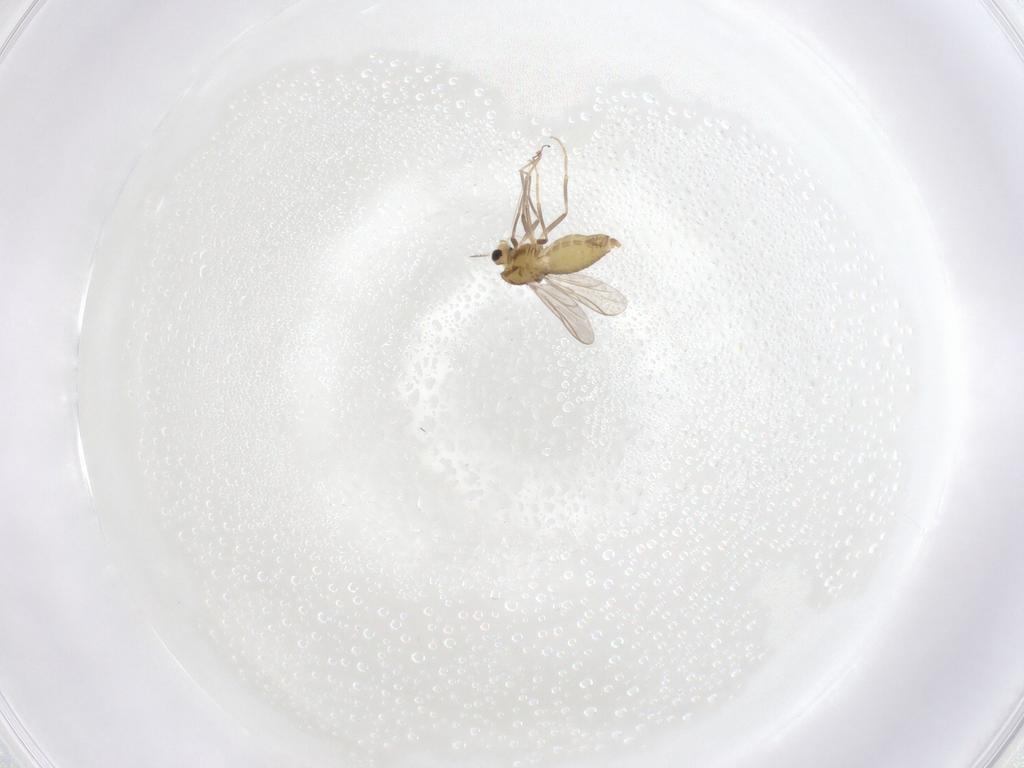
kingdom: Animalia
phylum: Arthropoda
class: Insecta
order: Diptera
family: Chironomidae
